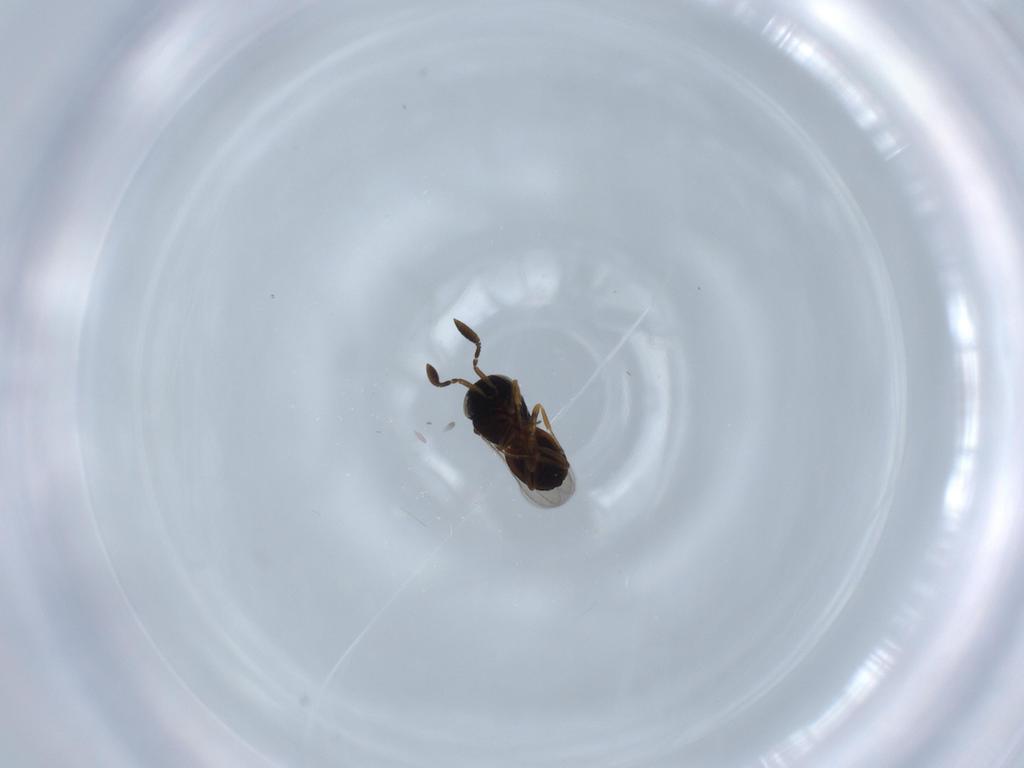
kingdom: Animalia
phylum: Arthropoda
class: Insecta
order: Coleoptera
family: Curculionidae
